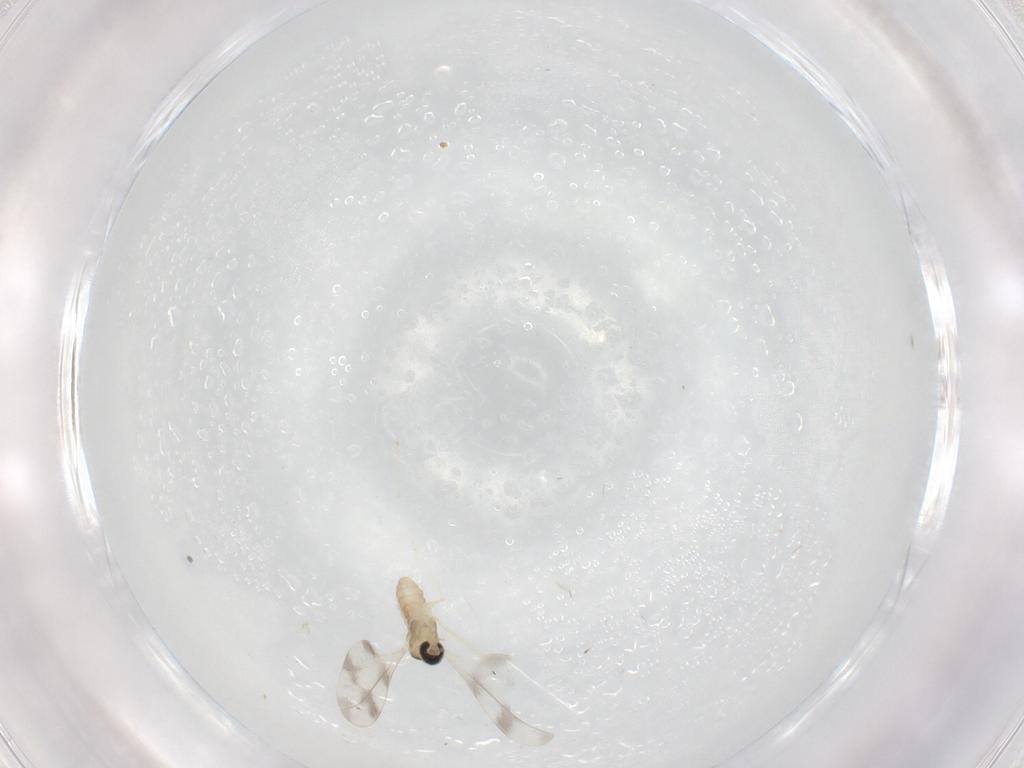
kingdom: Animalia
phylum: Arthropoda
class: Insecta
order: Diptera
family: Cecidomyiidae
